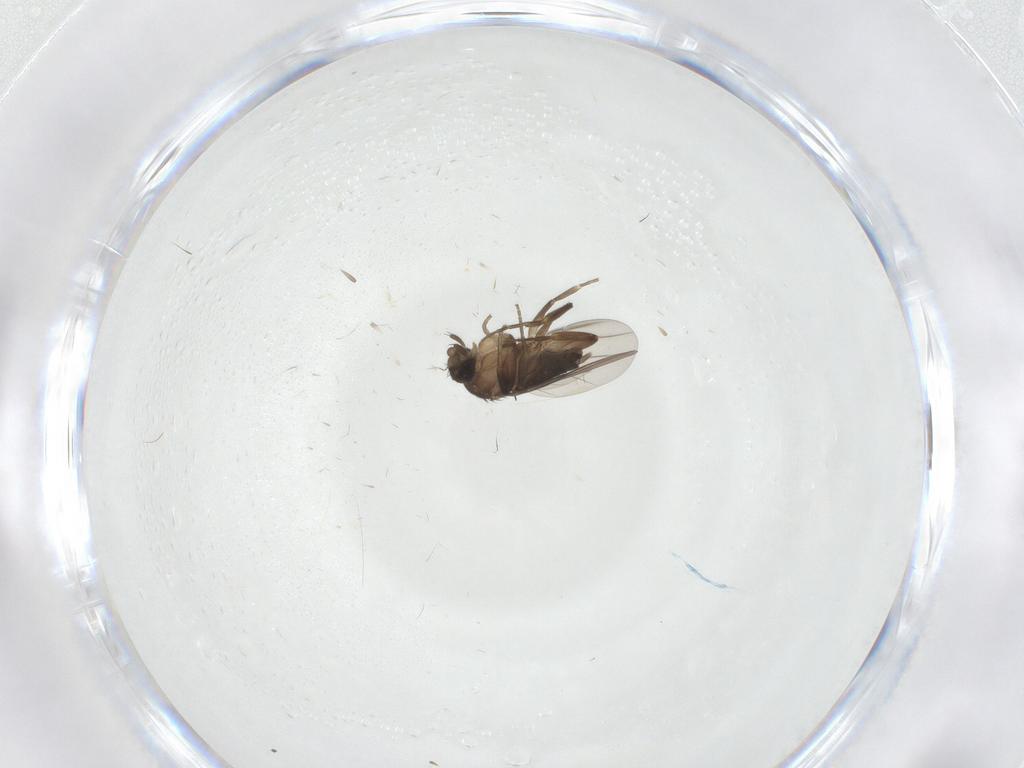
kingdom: Animalia
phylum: Arthropoda
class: Insecta
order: Diptera
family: Phoridae
